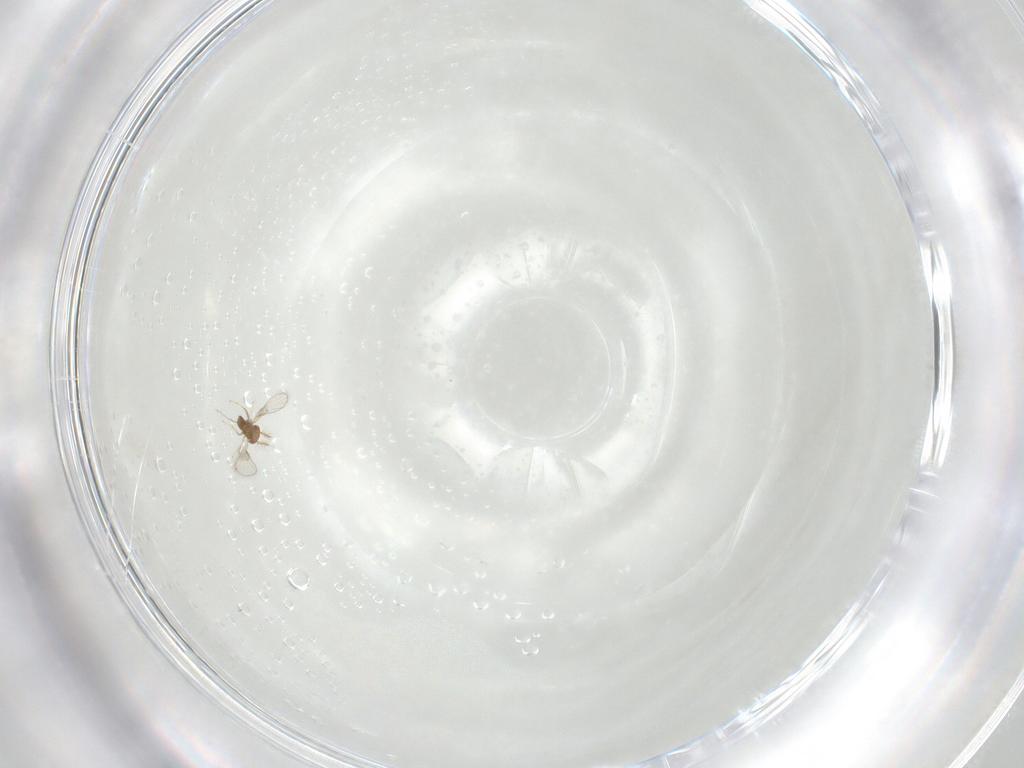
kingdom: Animalia
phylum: Arthropoda
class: Insecta
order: Hymenoptera
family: Trichogrammatidae
